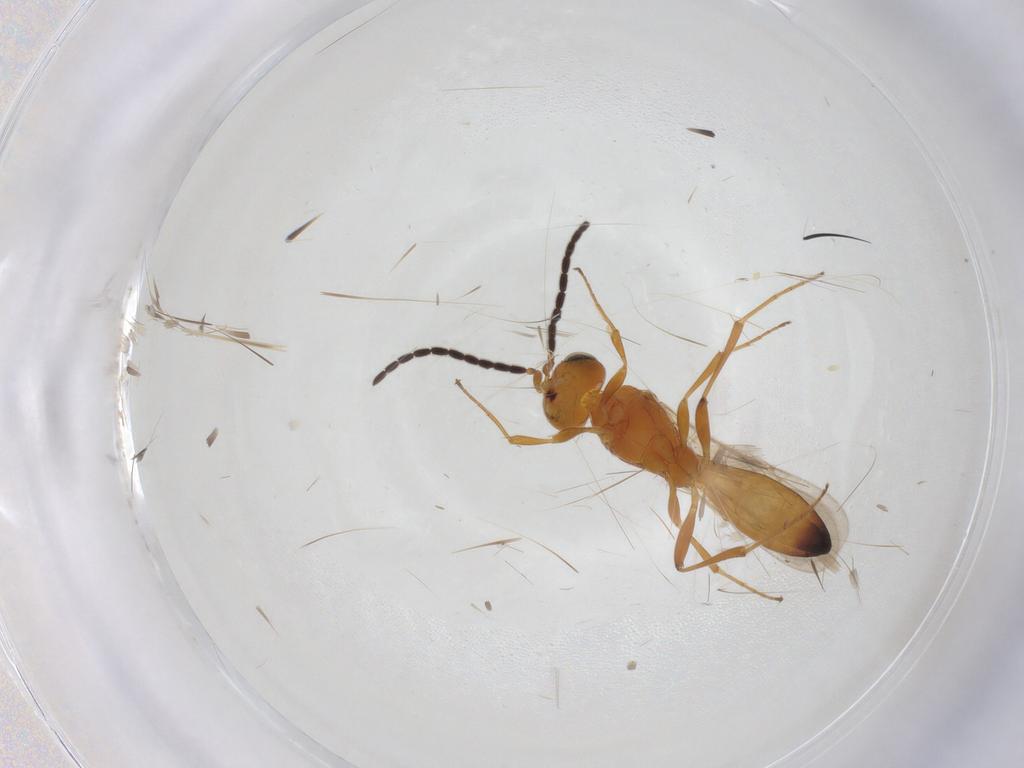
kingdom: Animalia
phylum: Arthropoda
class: Insecta
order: Hymenoptera
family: Scelionidae
